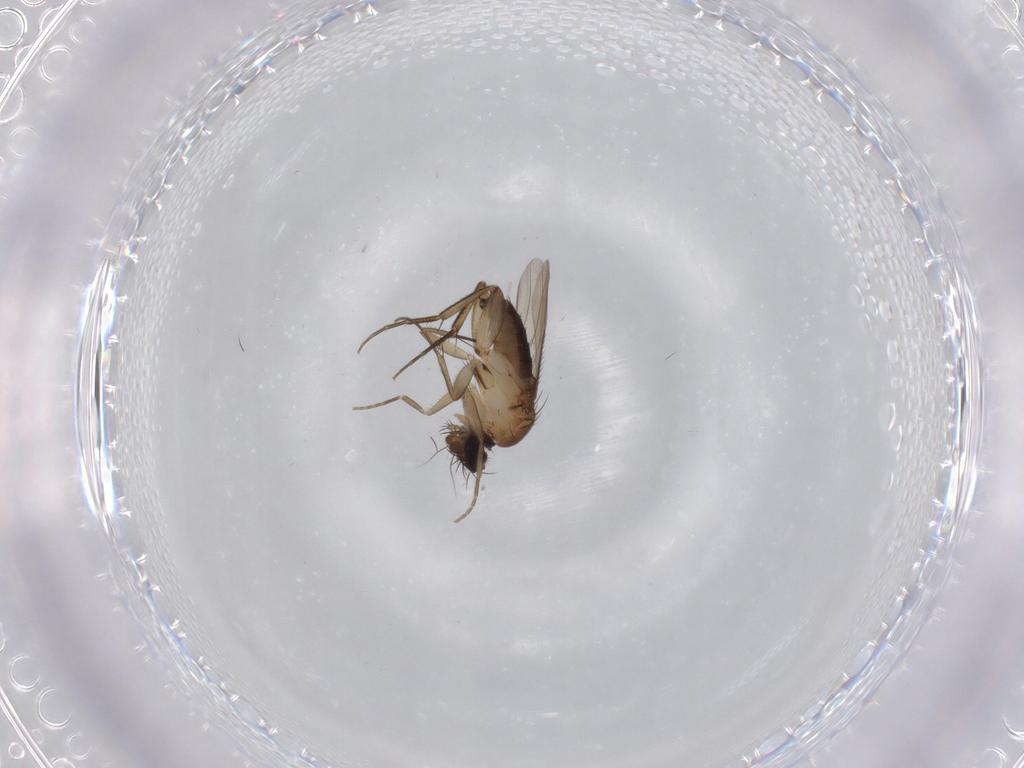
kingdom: Animalia
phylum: Arthropoda
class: Insecta
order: Diptera
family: Chironomidae
